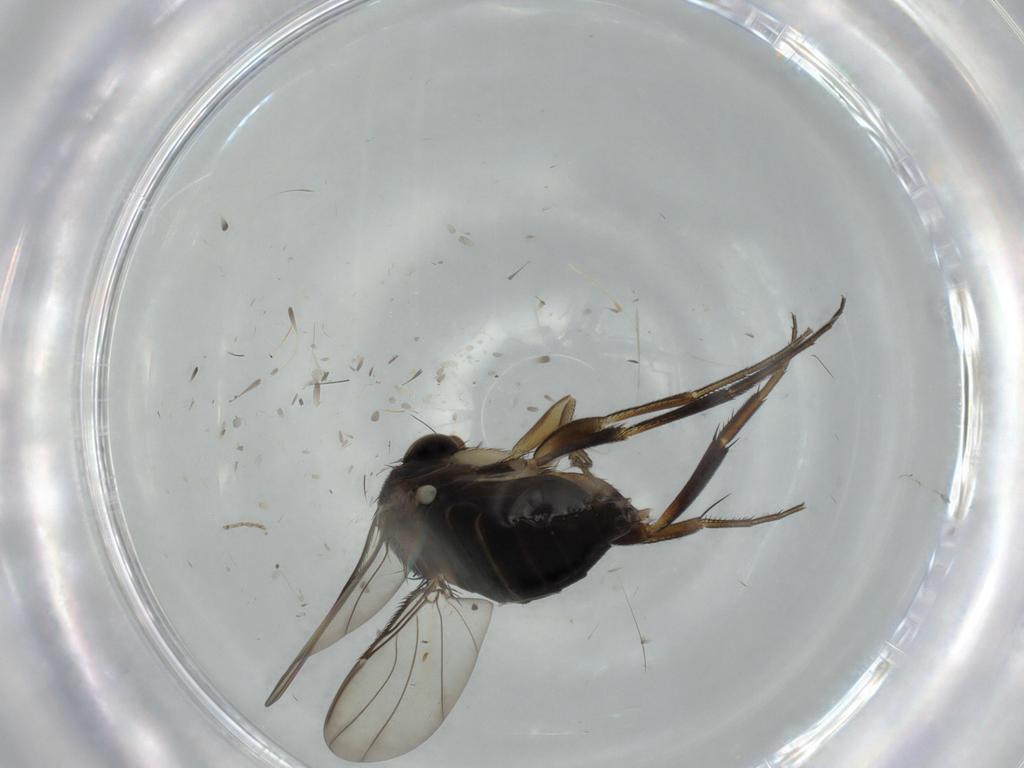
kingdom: Animalia
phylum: Arthropoda
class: Insecta
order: Diptera
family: Phoridae
